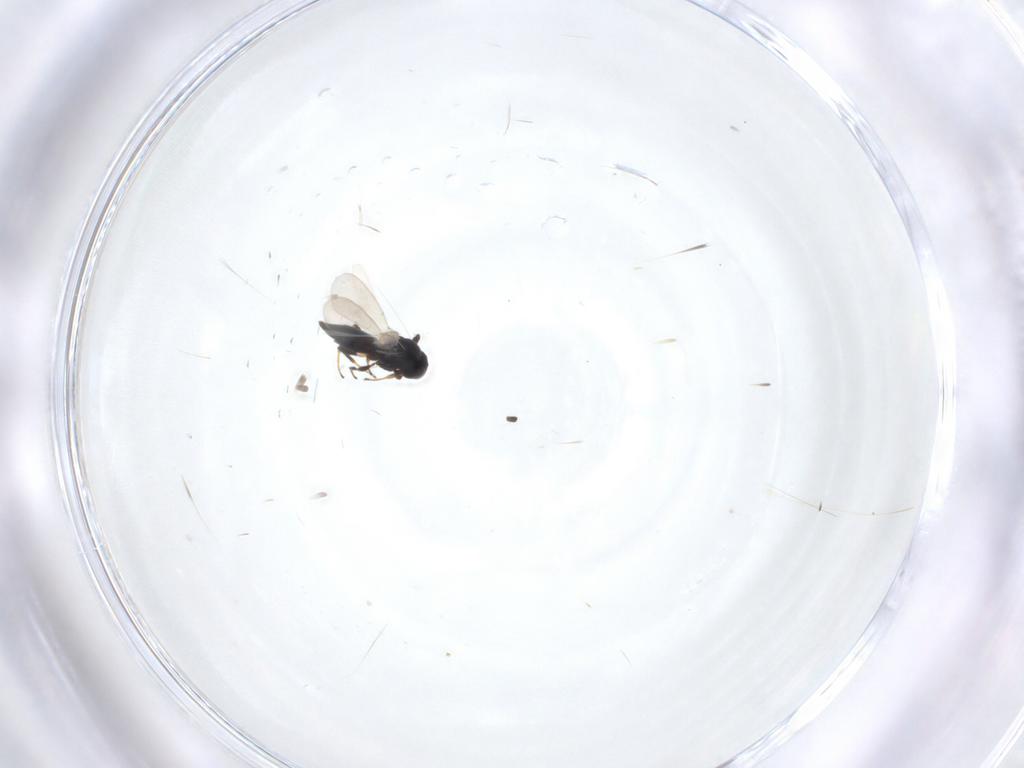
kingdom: Animalia
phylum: Arthropoda
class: Insecta
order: Hymenoptera
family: Platygastridae
